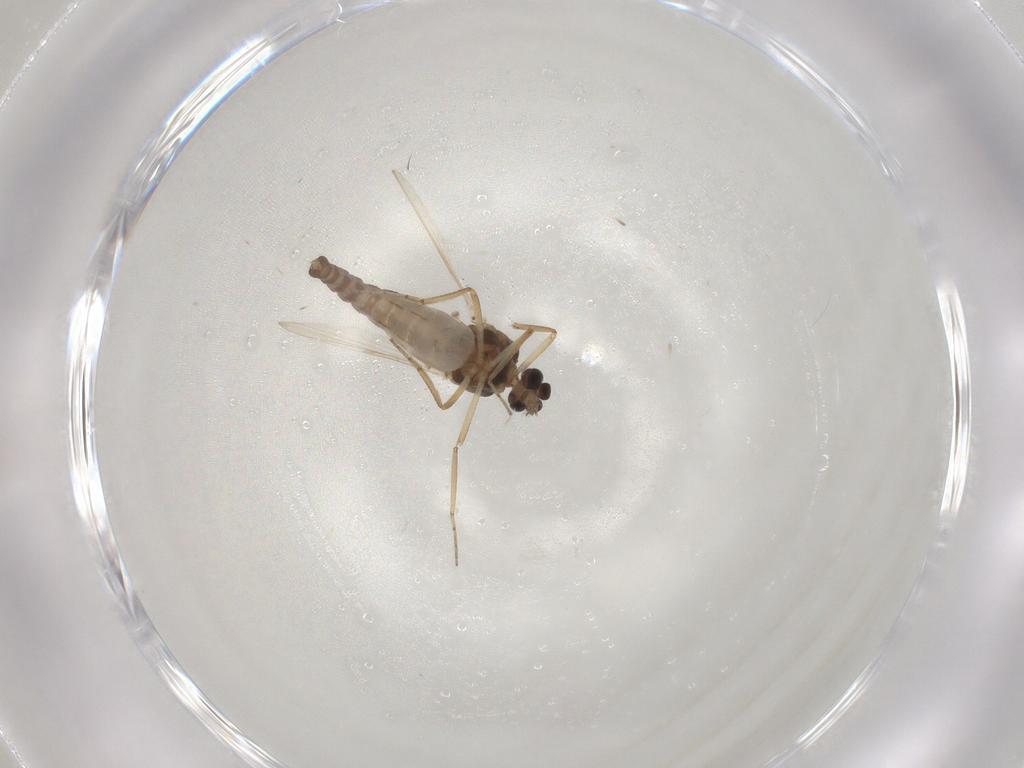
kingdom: Animalia
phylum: Arthropoda
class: Insecta
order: Diptera
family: Ceratopogonidae
